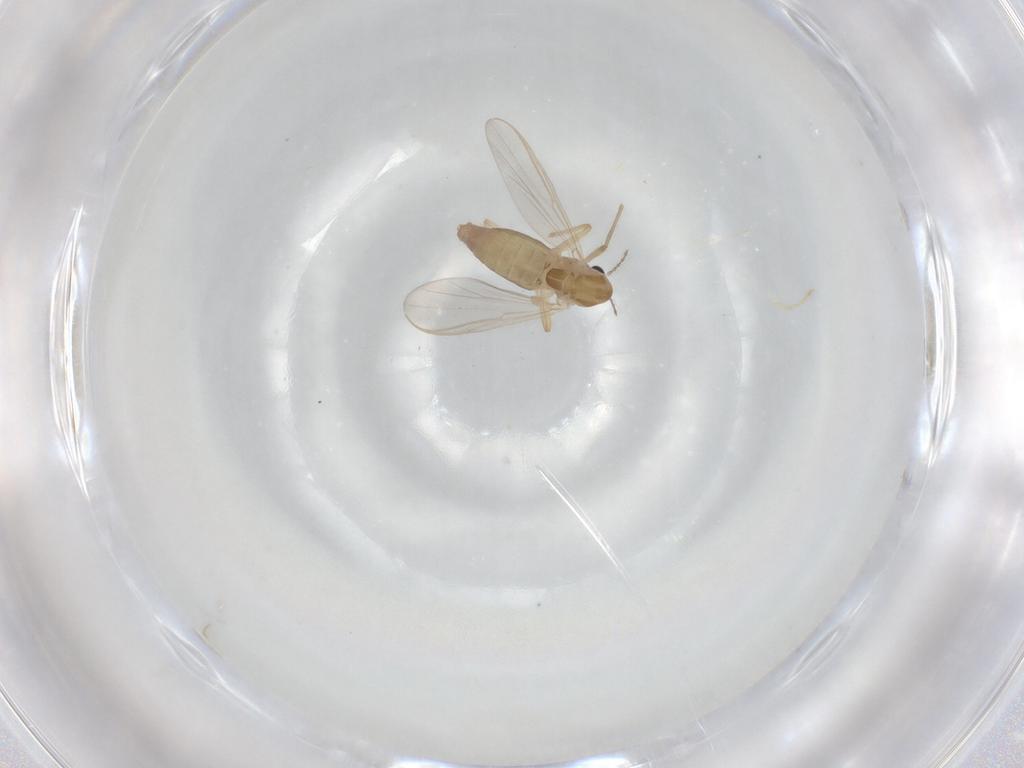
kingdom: Animalia
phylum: Arthropoda
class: Insecta
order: Diptera
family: Chironomidae
